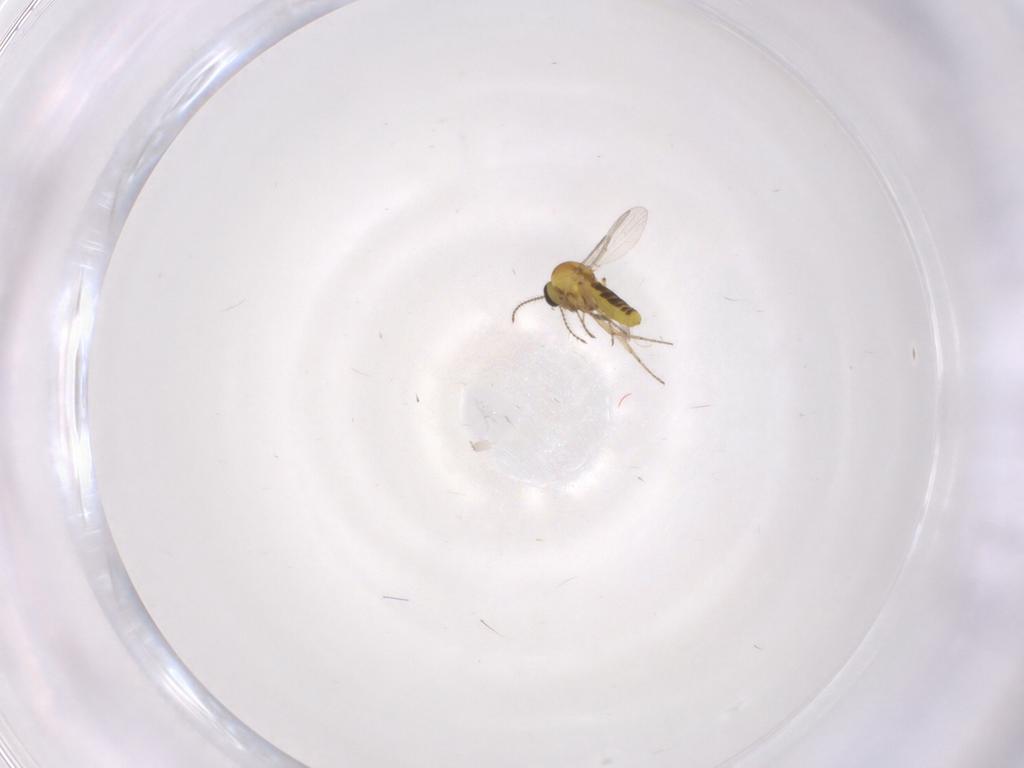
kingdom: Animalia
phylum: Arthropoda
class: Insecta
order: Diptera
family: Ceratopogonidae
